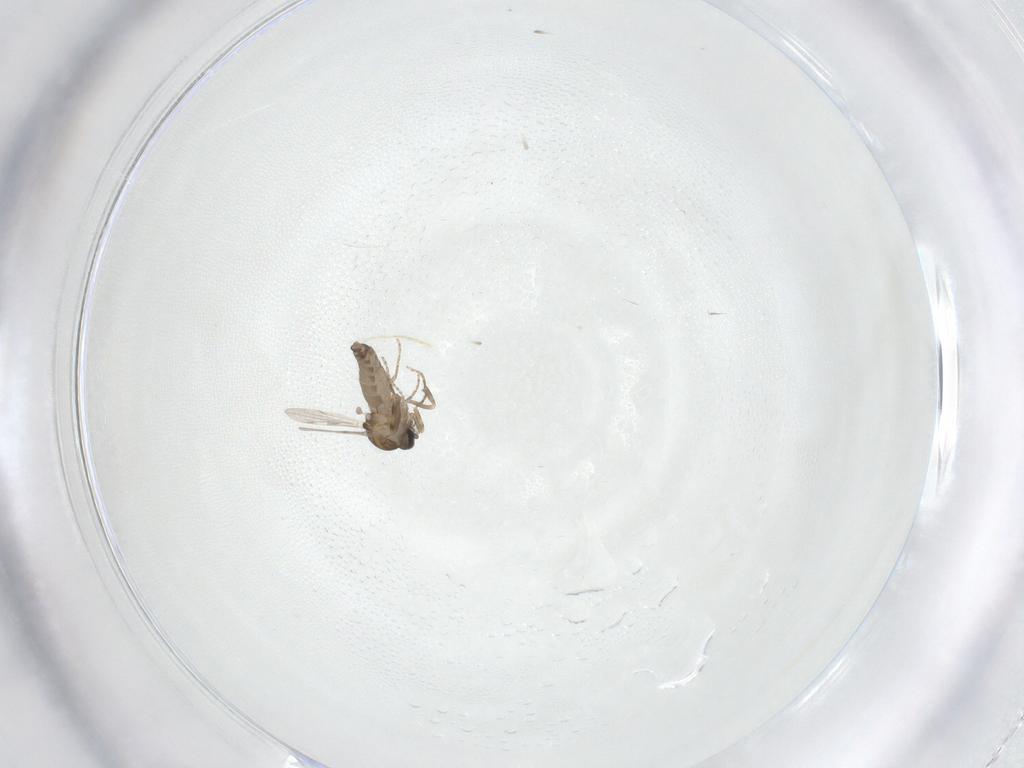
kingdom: Animalia
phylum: Arthropoda
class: Insecta
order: Diptera
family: Ceratopogonidae
